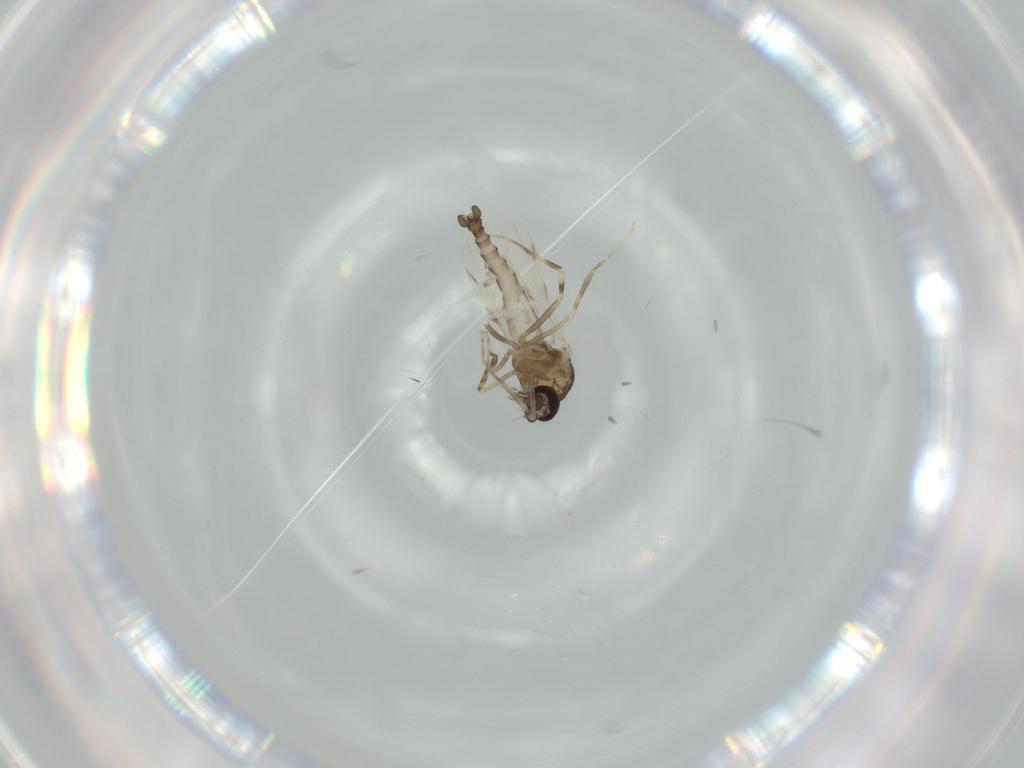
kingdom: Animalia
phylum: Arthropoda
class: Insecta
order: Diptera
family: Ceratopogonidae
